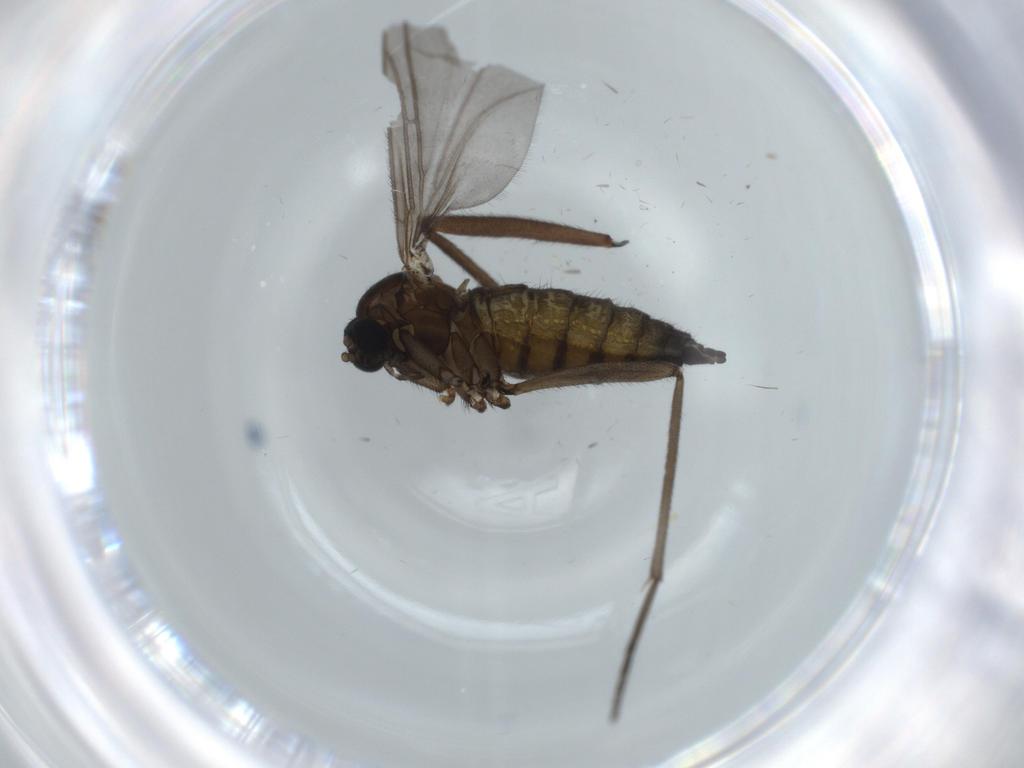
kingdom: Animalia
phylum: Arthropoda
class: Insecta
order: Diptera
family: Sciaridae
